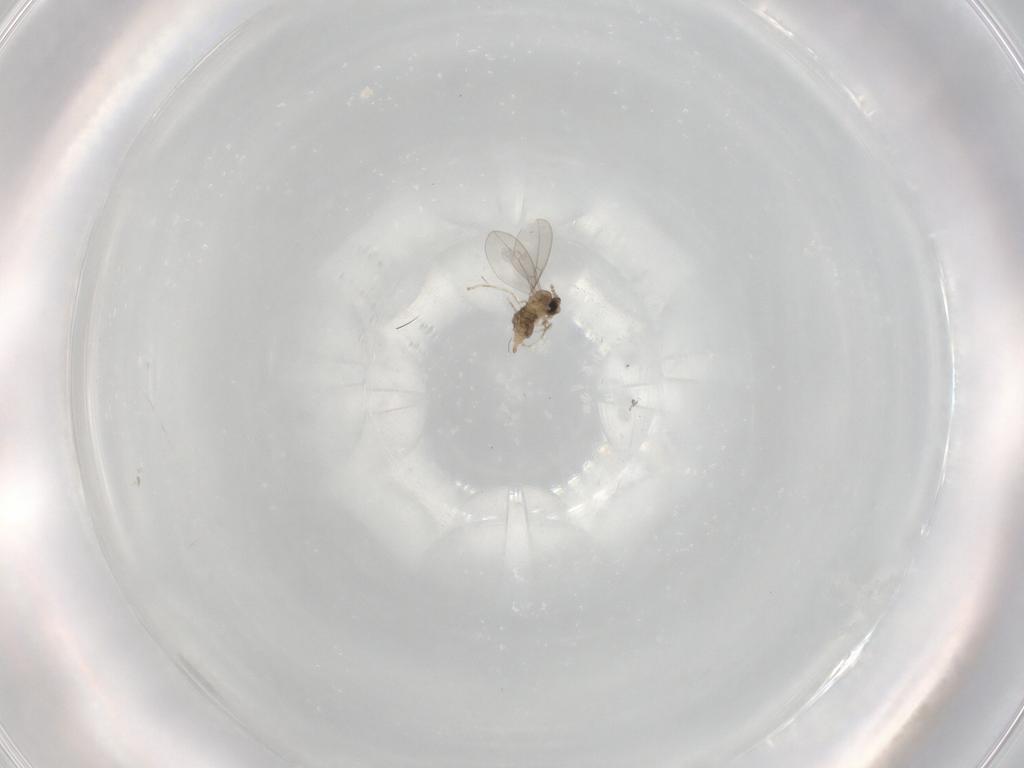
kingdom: Animalia
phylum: Arthropoda
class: Insecta
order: Diptera
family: Cecidomyiidae
